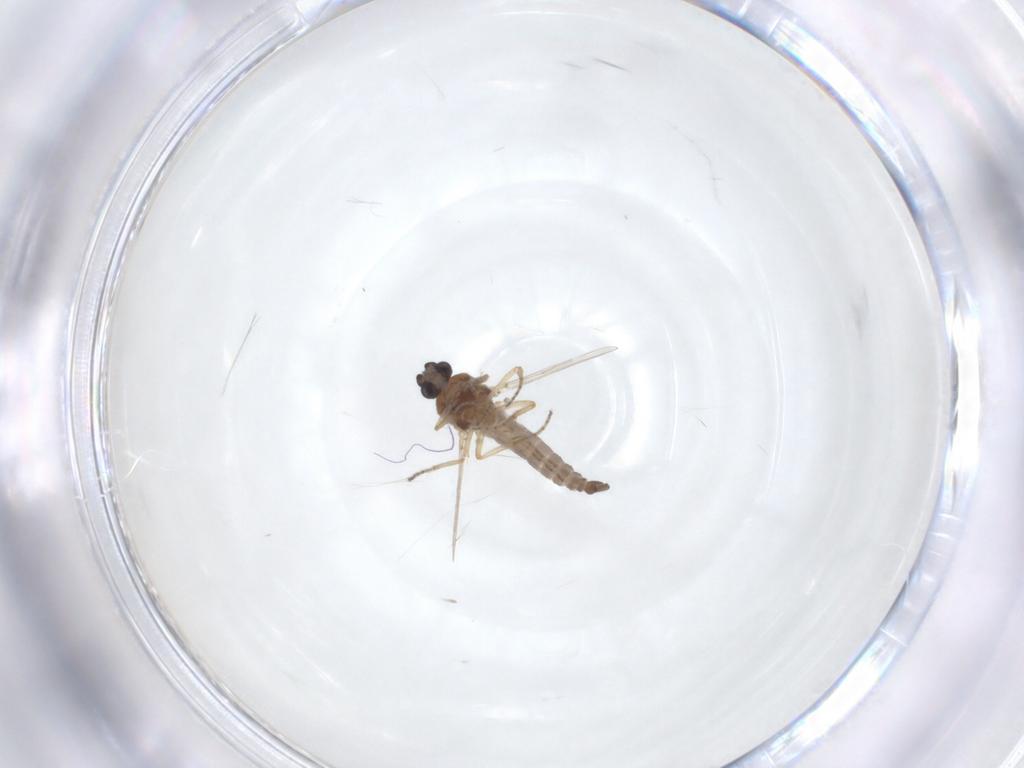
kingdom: Animalia
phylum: Arthropoda
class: Insecta
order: Diptera
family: Ceratopogonidae
